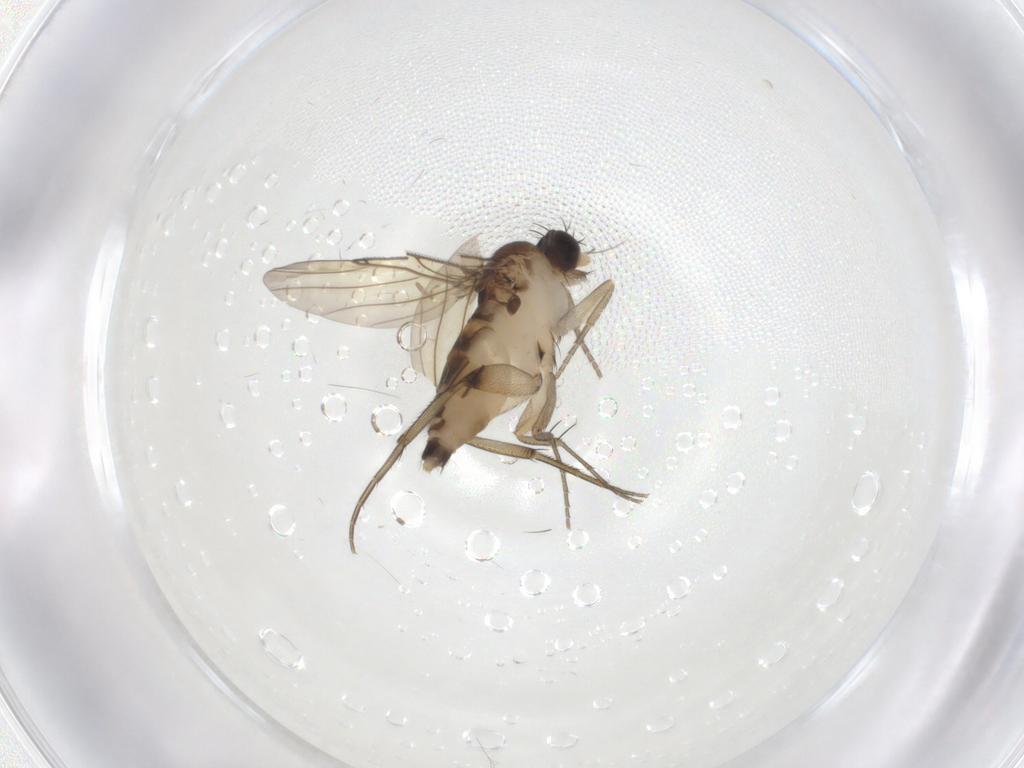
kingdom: Animalia
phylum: Arthropoda
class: Insecta
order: Diptera
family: Phoridae
